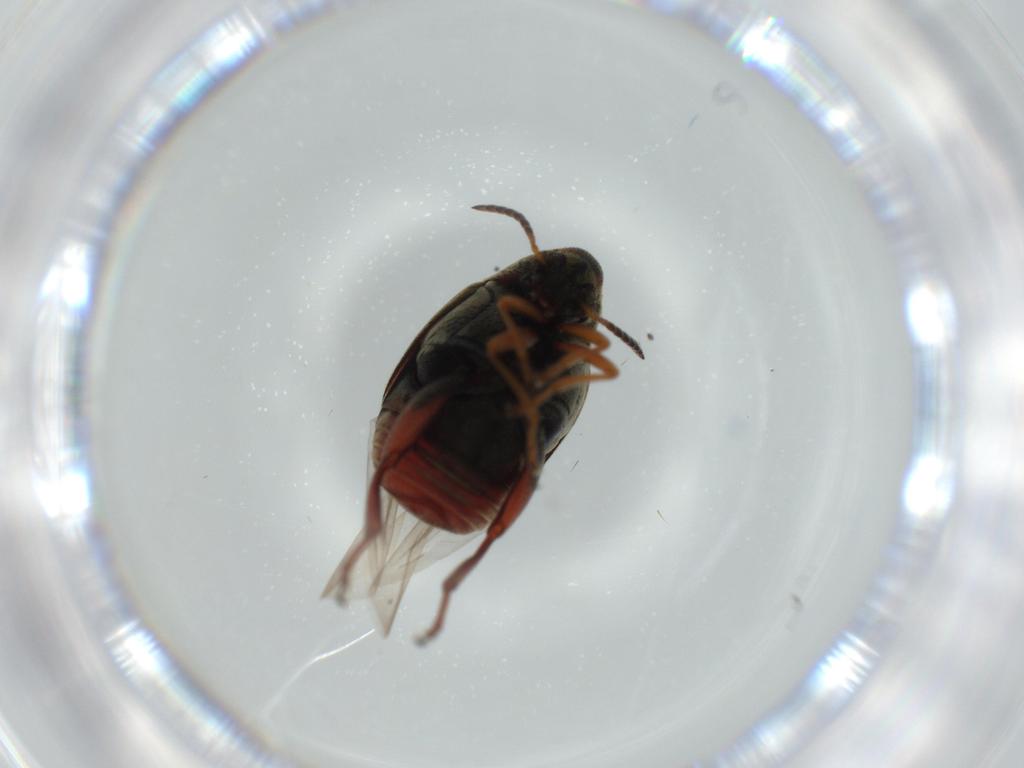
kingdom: Animalia
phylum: Arthropoda
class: Insecta
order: Coleoptera
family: Chrysomelidae
